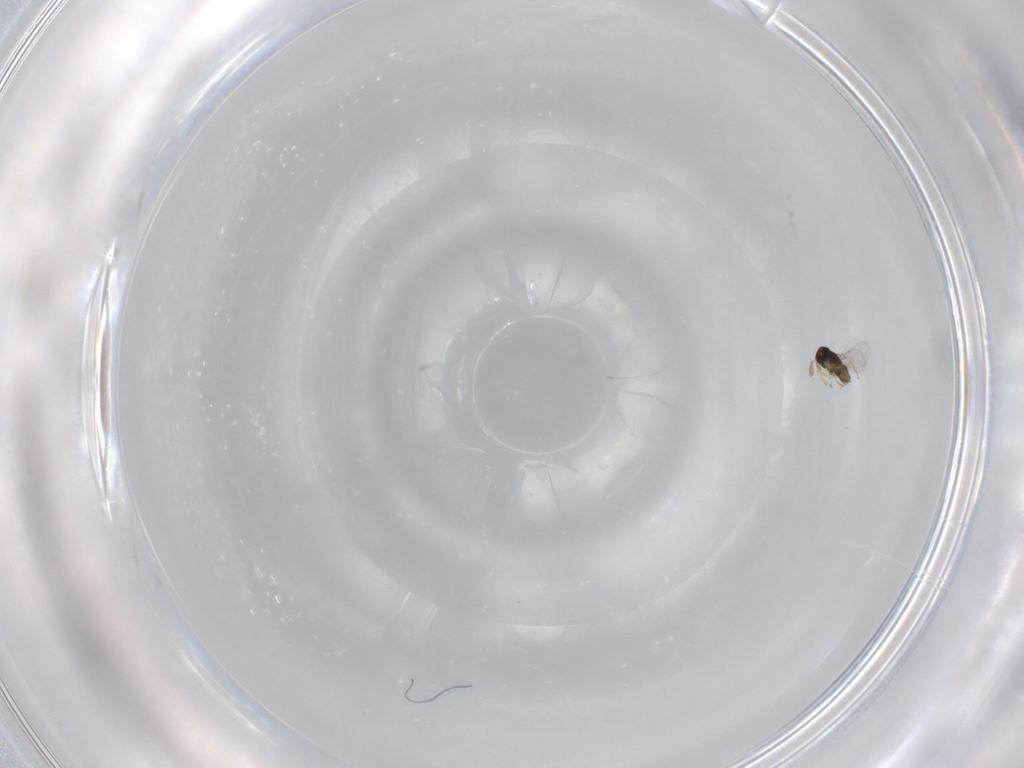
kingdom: Animalia
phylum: Arthropoda
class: Insecta
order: Hymenoptera
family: Encyrtidae
